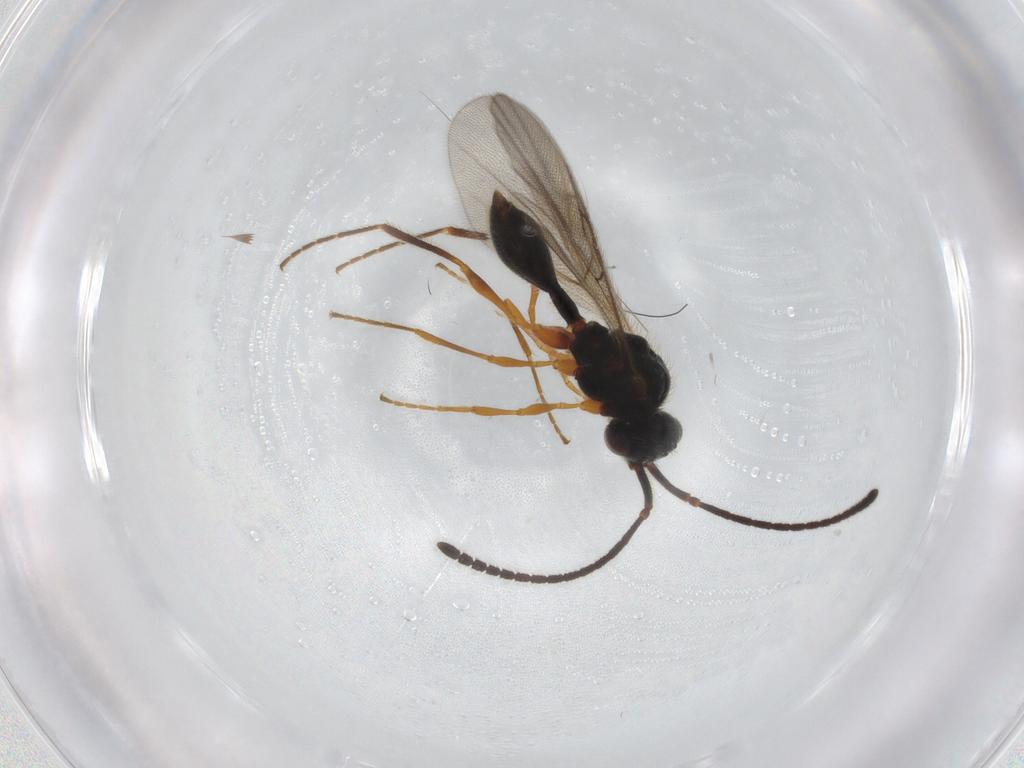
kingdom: Animalia
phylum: Arthropoda
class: Insecta
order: Hymenoptera
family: Diapriidae
